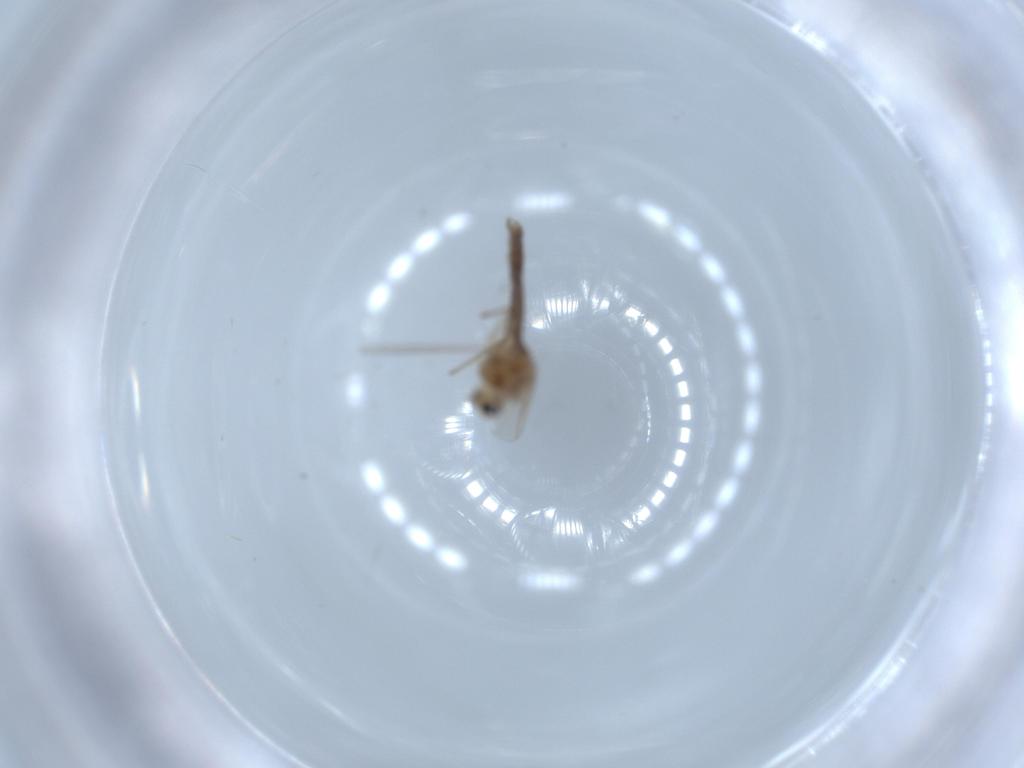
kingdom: Animalia
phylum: Arthropoda
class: Insecta
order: Diptera
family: Chironomidae
